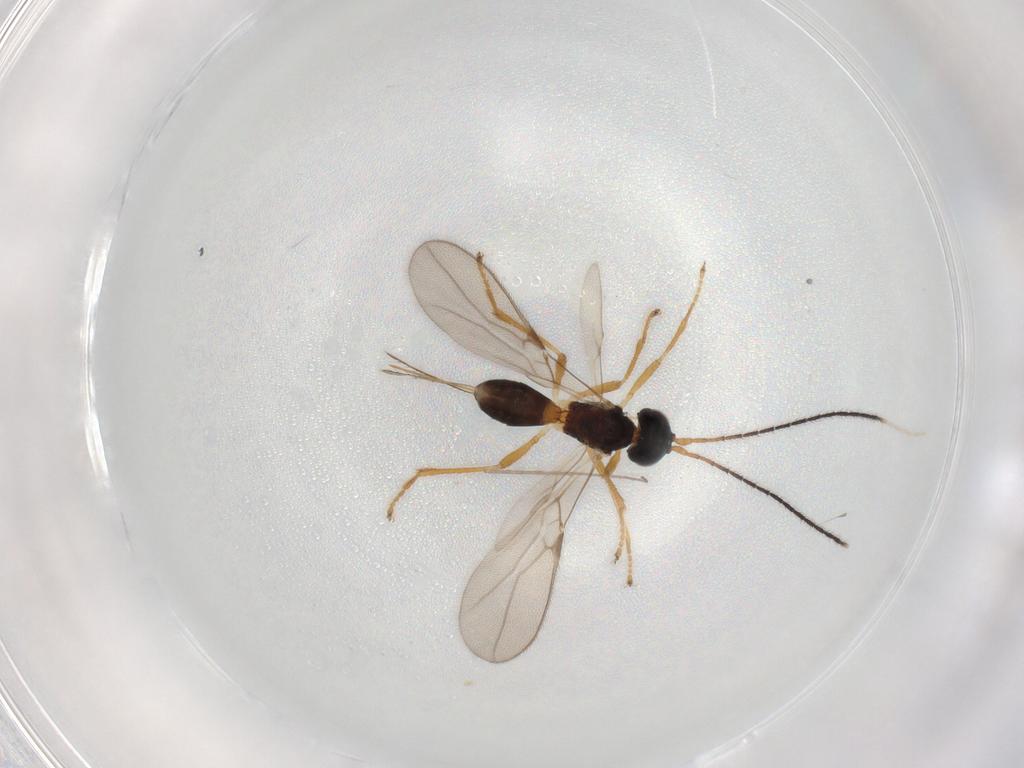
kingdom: Animalia
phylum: Arthropoda
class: Insecta
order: Hymenoptera
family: Braconidae
